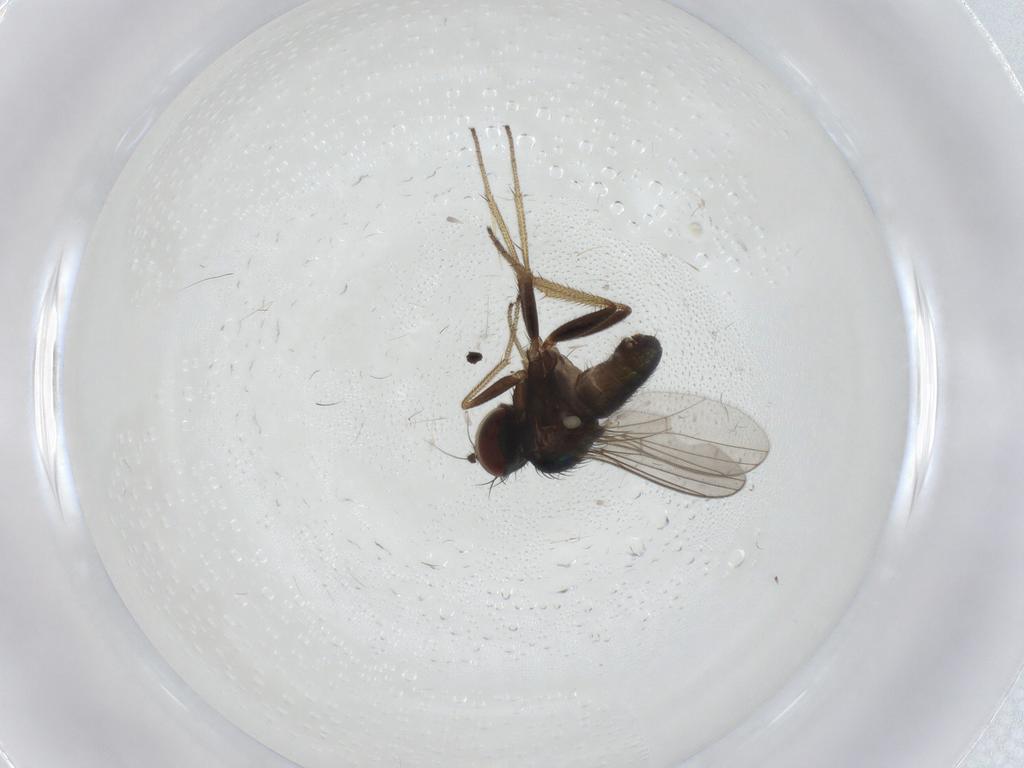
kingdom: Animalia
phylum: Arthropoda
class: Insecta
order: Diptera
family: Dolichopodidae
